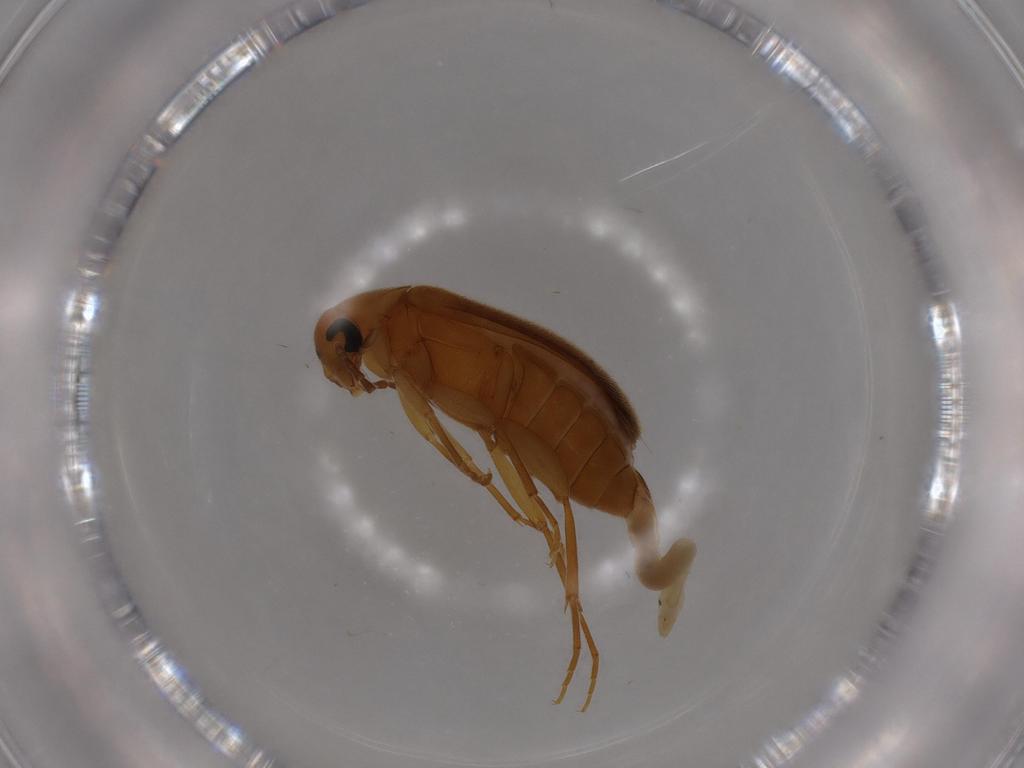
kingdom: Animalia
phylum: Arthropoda
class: Insecta
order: Coleoptera
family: Scraptiidae
